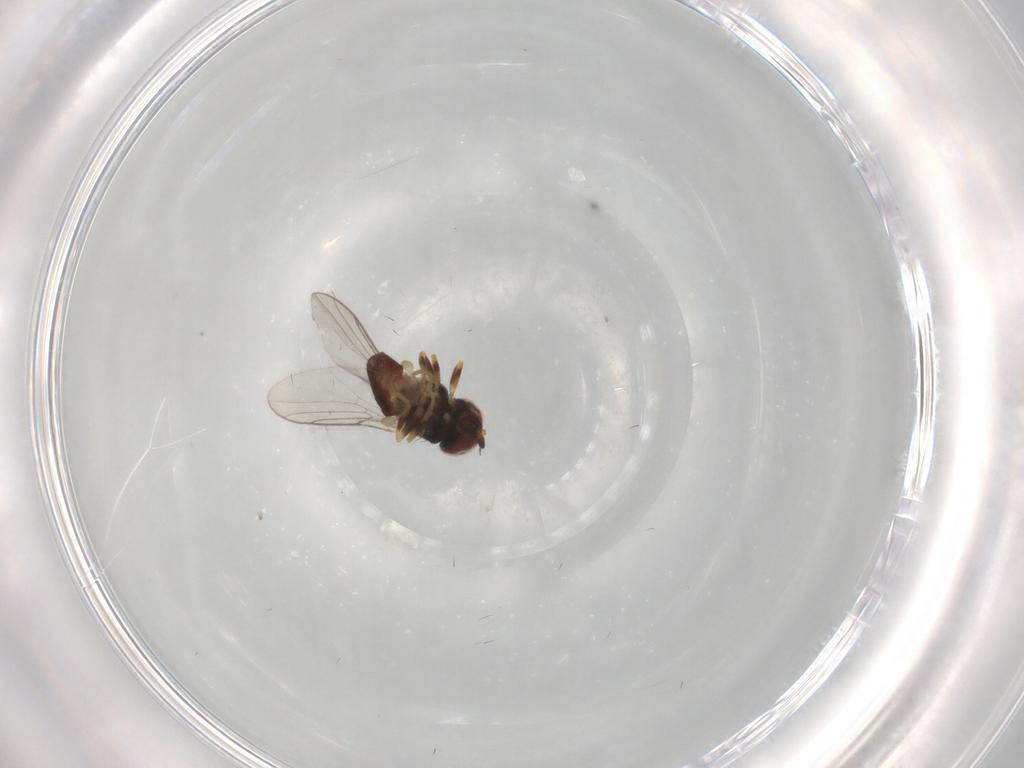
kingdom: Animalia
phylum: Arthropoda
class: Insecta
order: Diptera
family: Chloropidae
